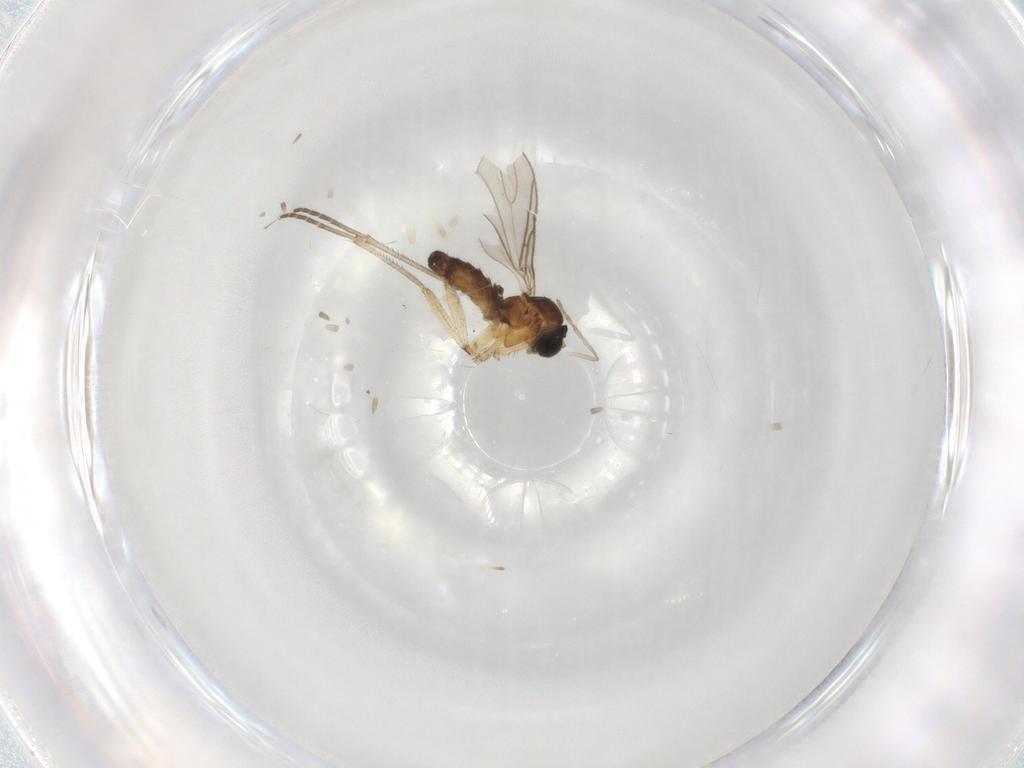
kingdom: Animalia
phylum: Arthropoda
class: Insecta
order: Diptera
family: Sciaridae
